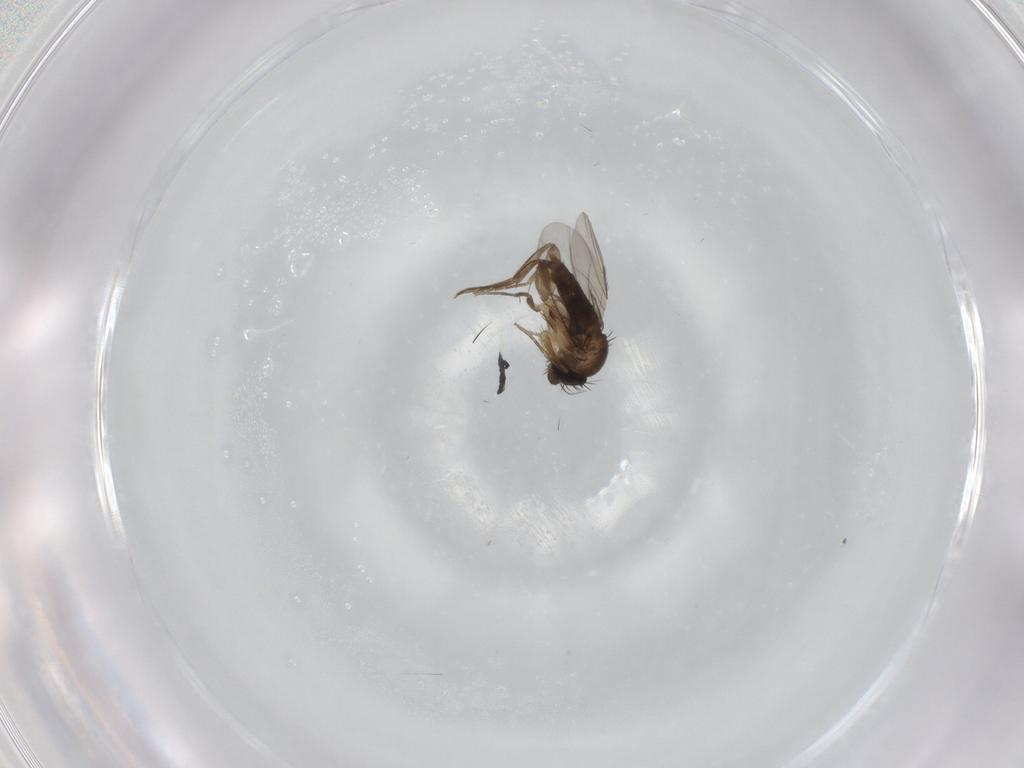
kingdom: Animalia
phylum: Arthropoda
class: Insecta
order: Diptera
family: Phoridae
